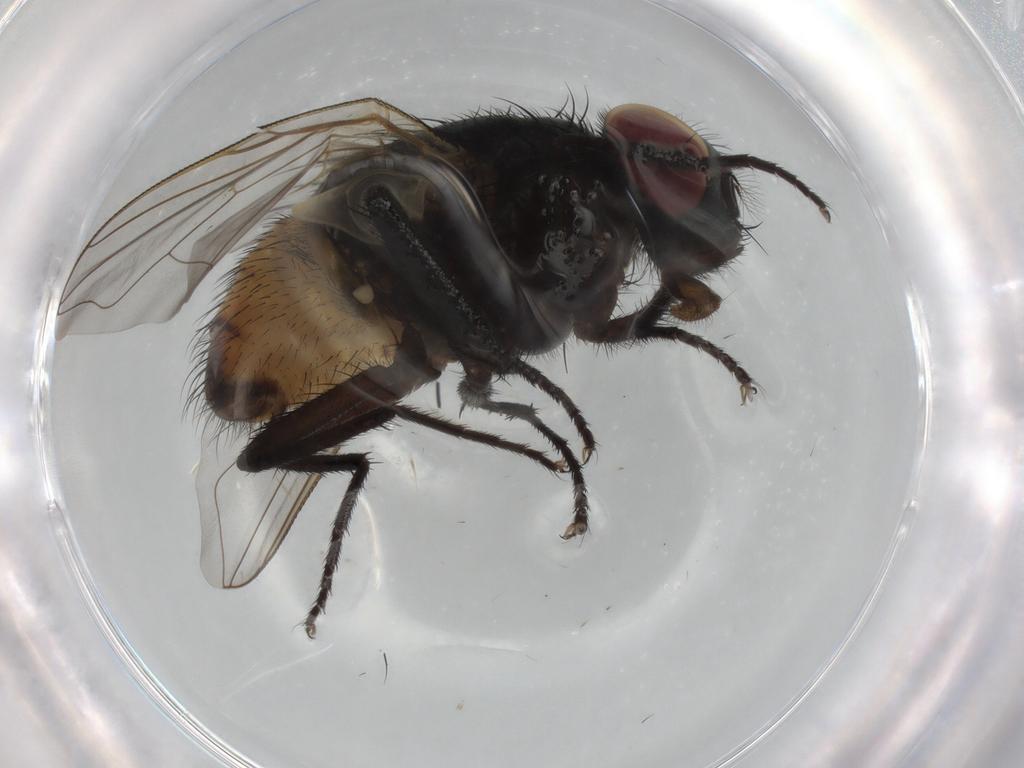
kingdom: Animalia
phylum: Arthropoda
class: Insecta
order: Diptera
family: Muscidae
